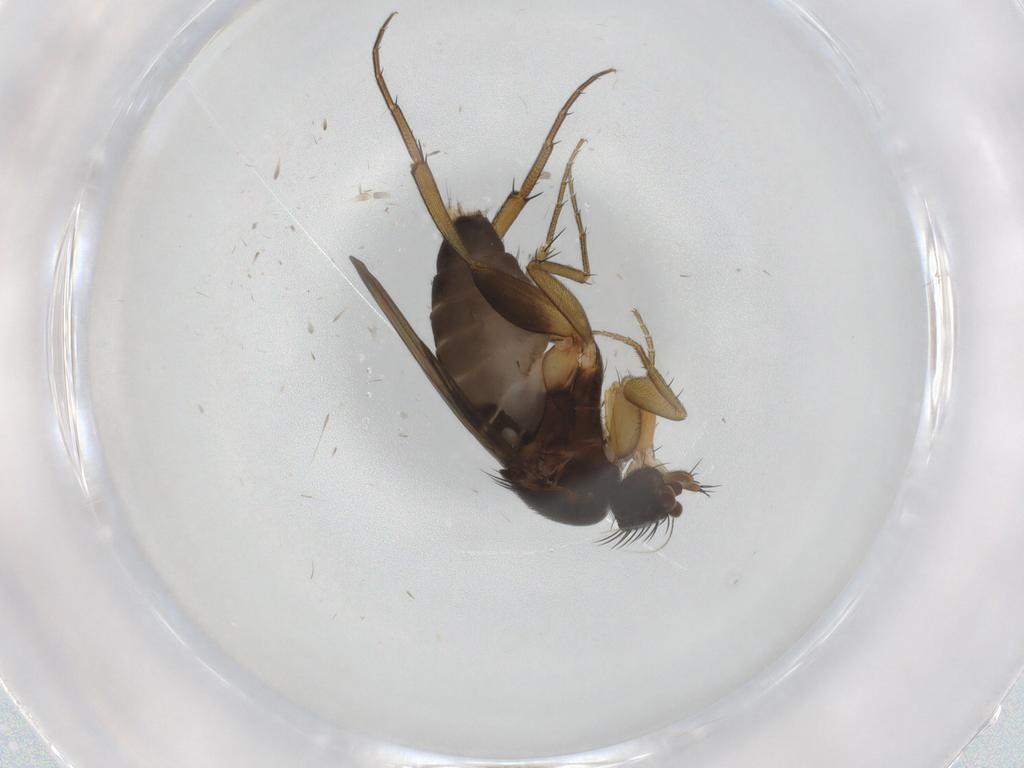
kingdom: Animalia
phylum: Arthropoda
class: Insecta
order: Diptera
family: Phoridae
